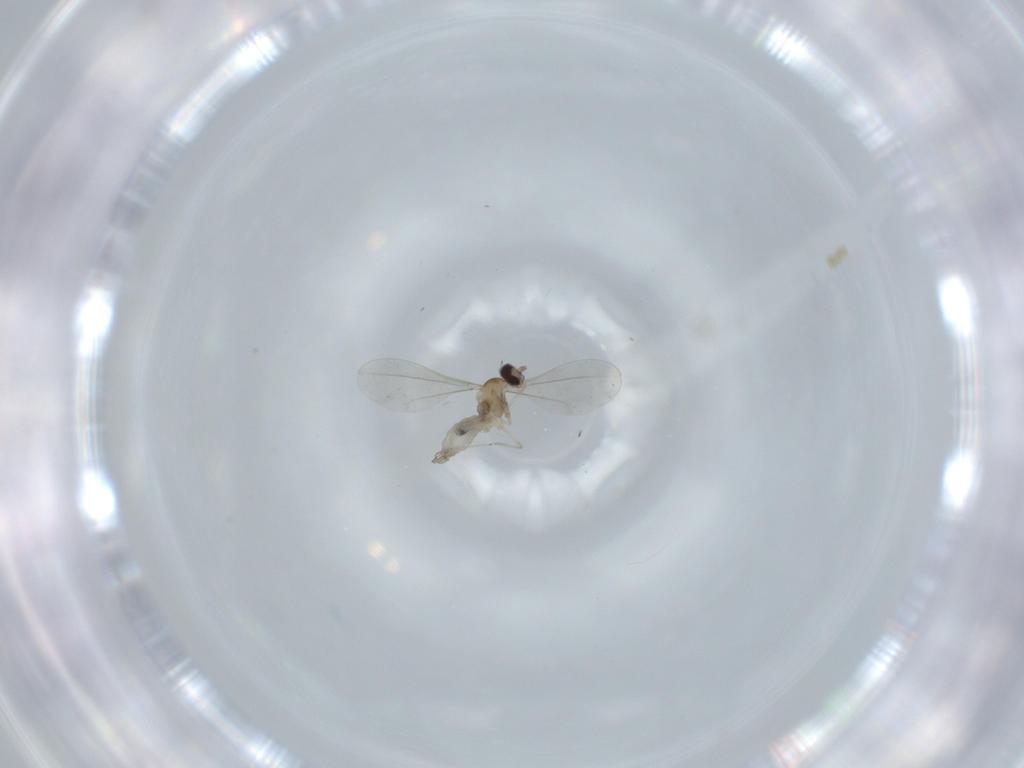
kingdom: Animalia
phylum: Arthropoda
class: Insecta
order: Diptera
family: Cecidomyiidae
